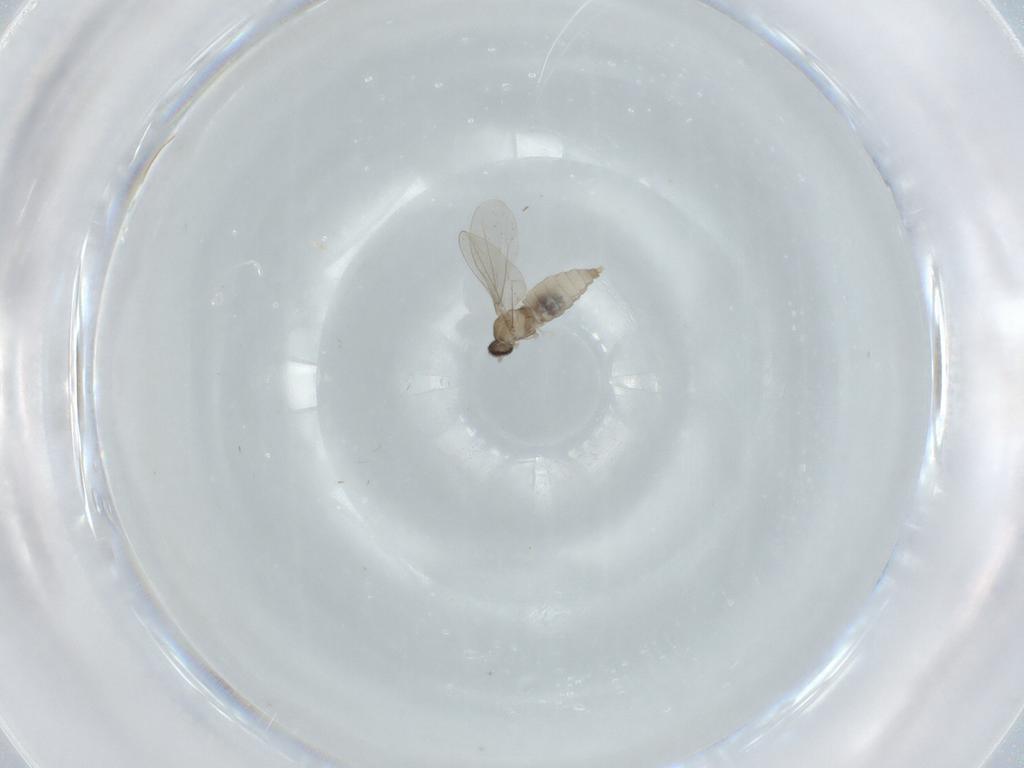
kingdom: Animalia
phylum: Arthropoda
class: Insecta
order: Diptera
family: Cecidomyiidae
